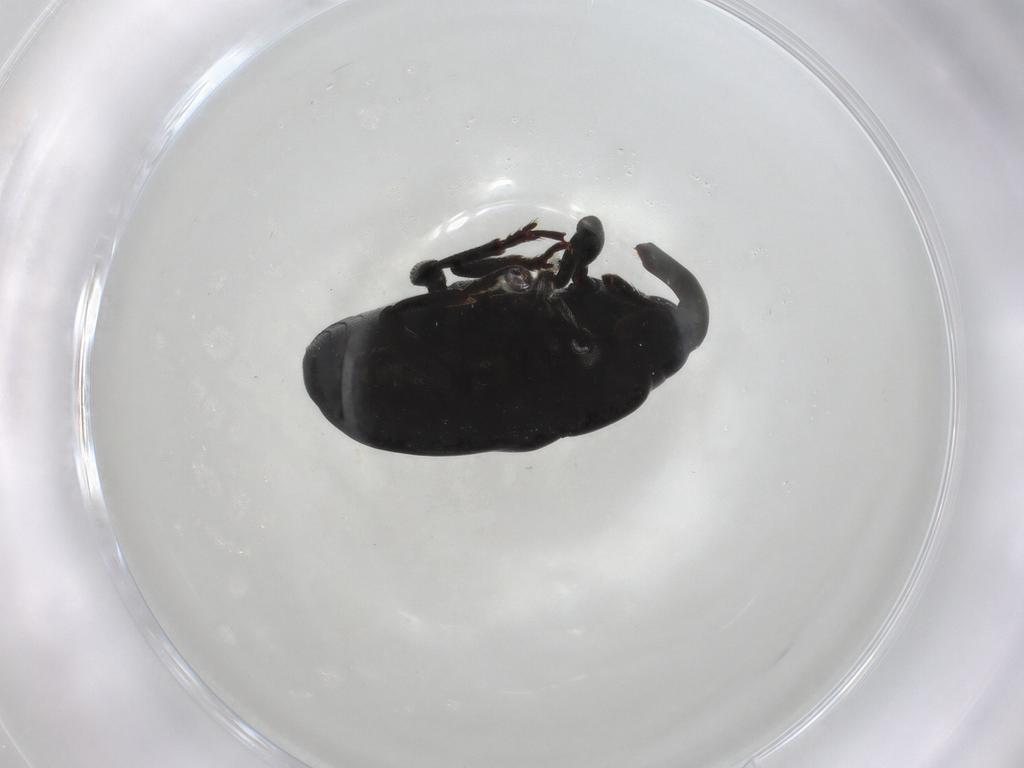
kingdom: Animalia
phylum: Arthropoda
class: Insecta
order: Coleoptera
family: Curculionidae
